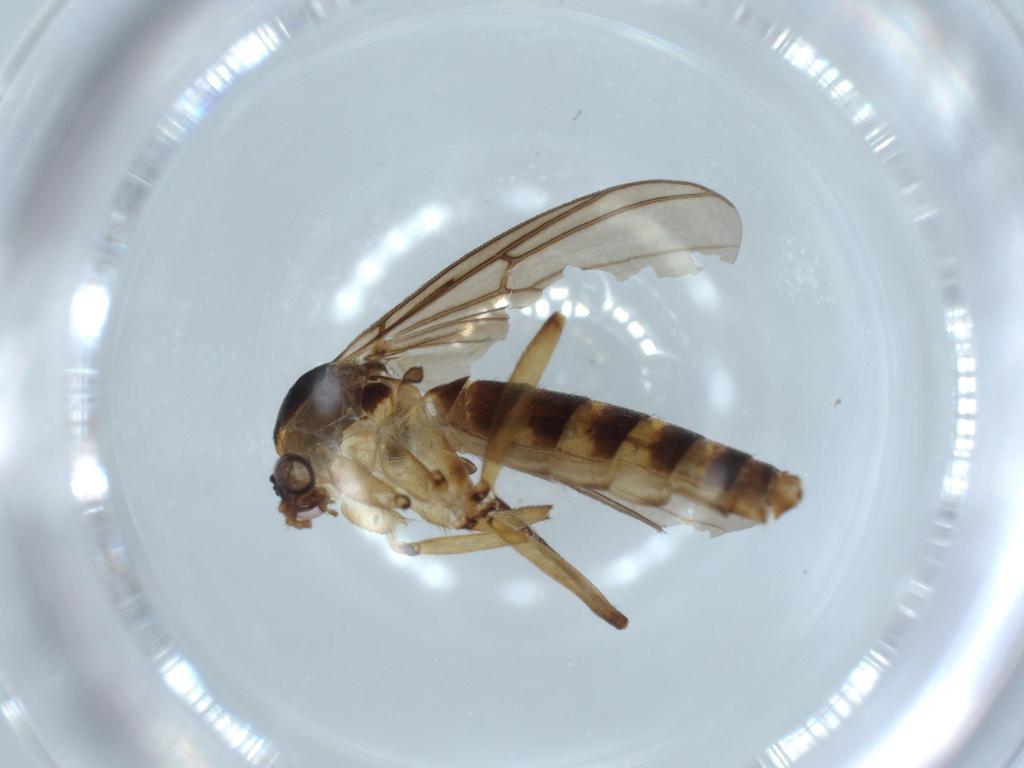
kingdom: Animalia
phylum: Arthropoda
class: Insecta
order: Diptera
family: Mycetophilidae
